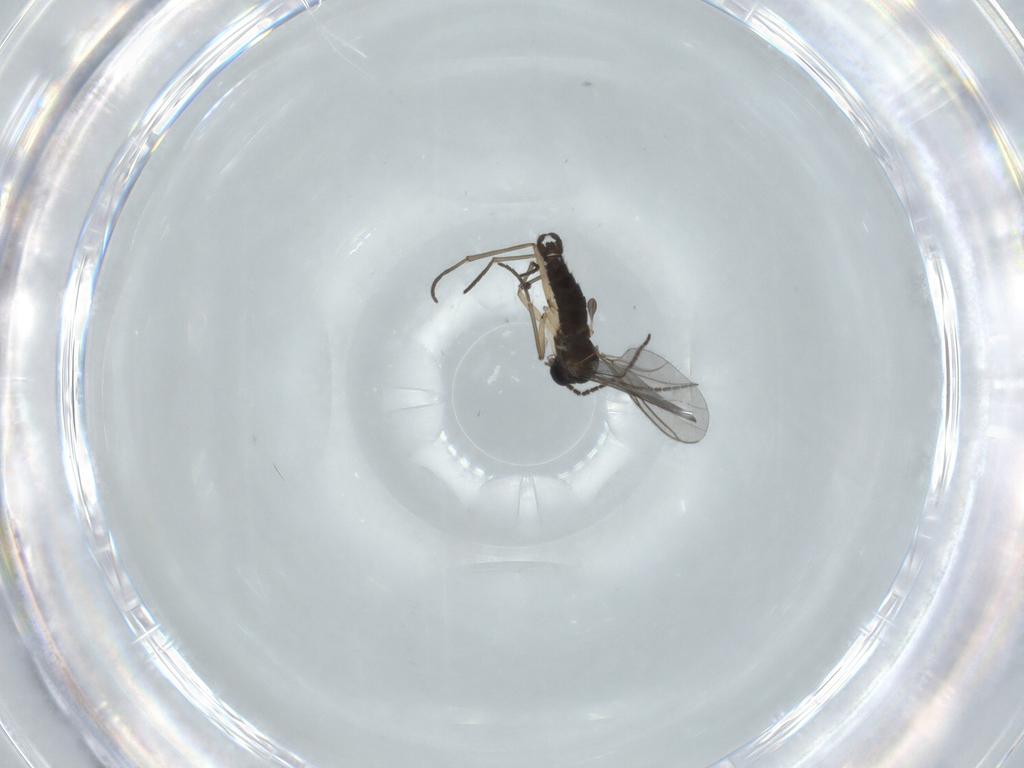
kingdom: Animalia
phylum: Arthropoda
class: Insecta
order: Diptera
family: Sciaridae
